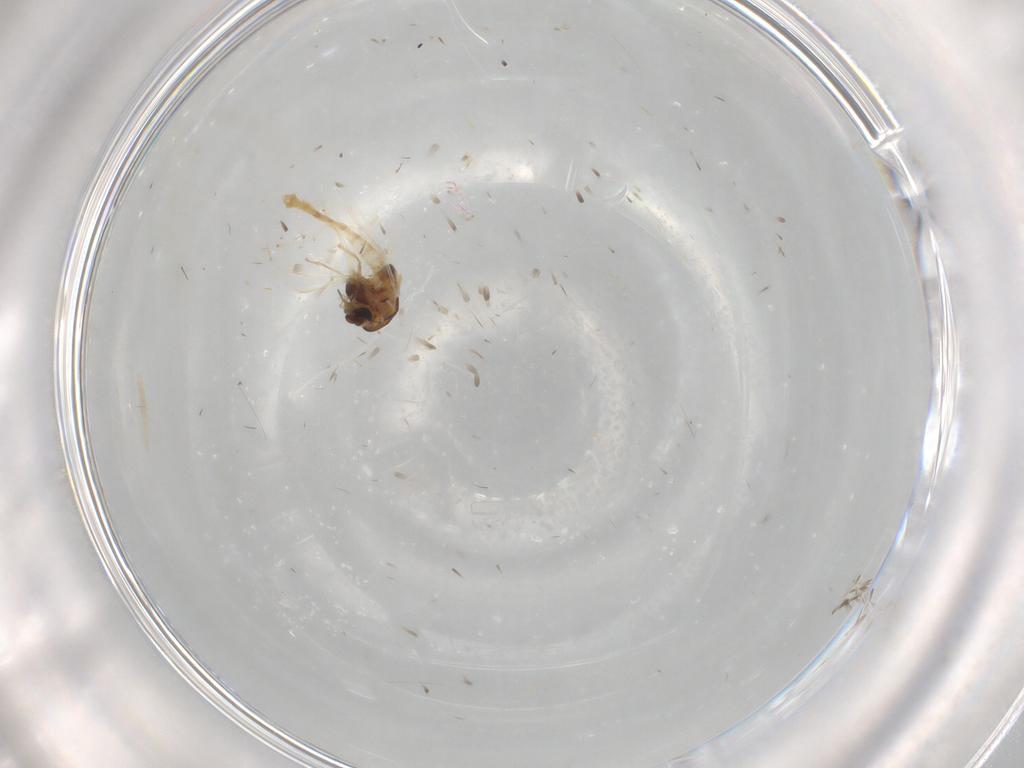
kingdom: Animalia
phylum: Arthropoda
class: Insecta
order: Diptera
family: Chironomidae
